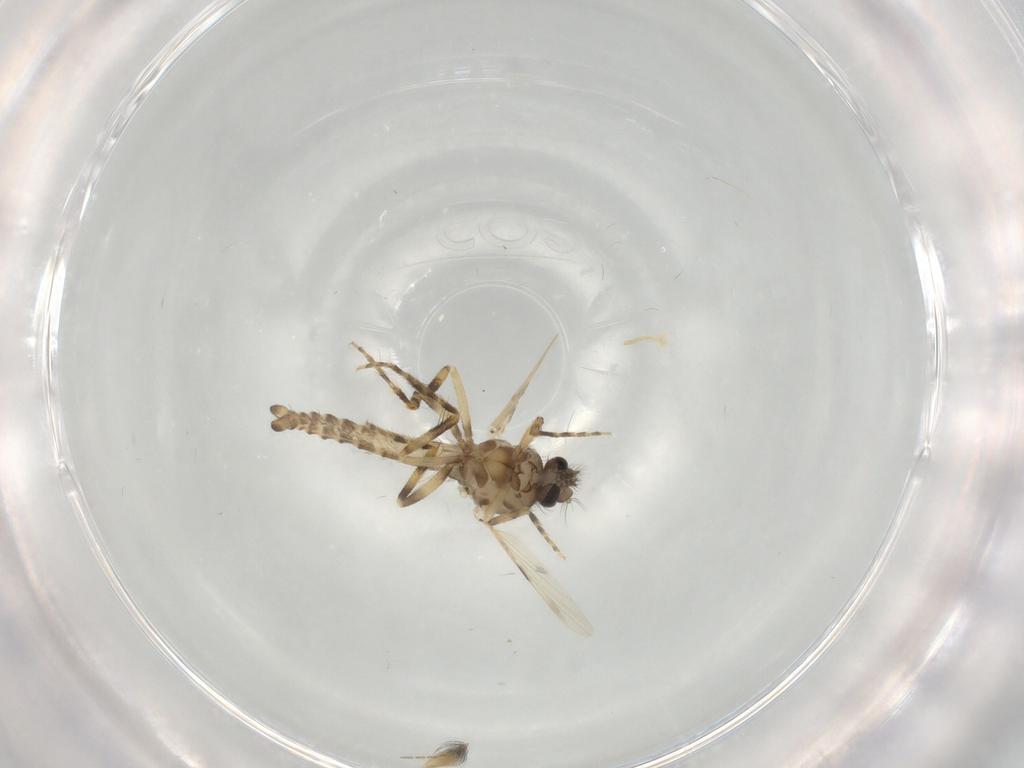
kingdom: Animalia
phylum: Arthropoda
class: Insecta
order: Diptera
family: Ceratopogonidae
